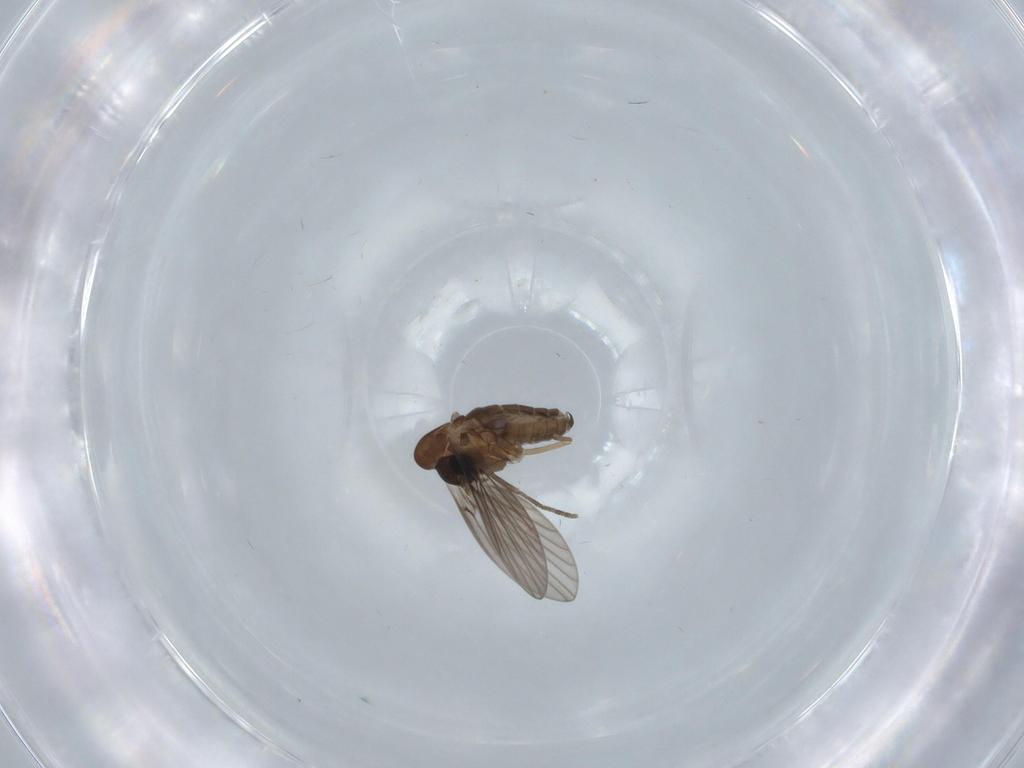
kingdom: Animalia
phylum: Arthropoda
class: Insecta
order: Diptera
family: Psychodidae
